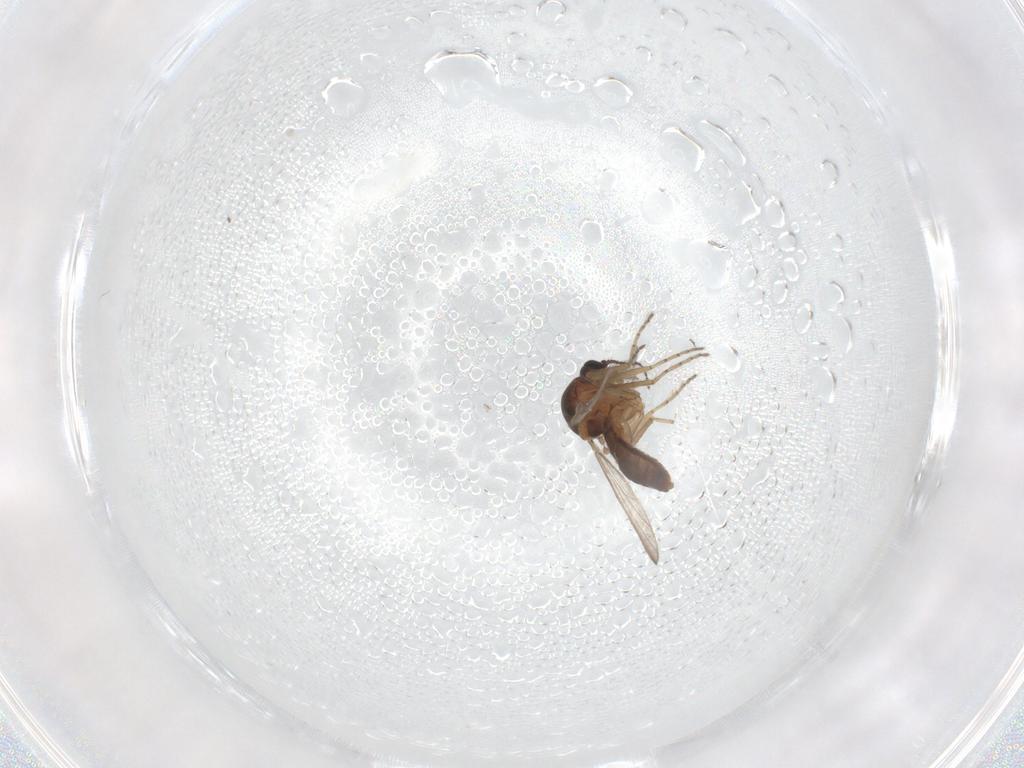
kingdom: Animalia
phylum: Arthropoda
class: Insecta
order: Diptera
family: Ceratopogonidae
